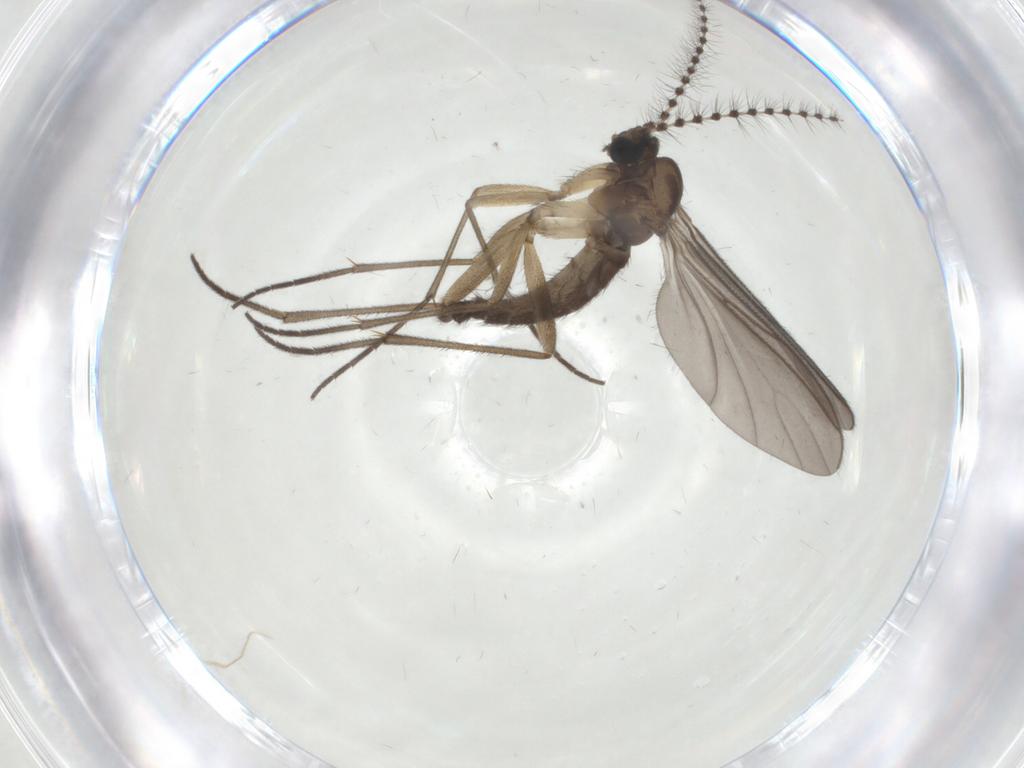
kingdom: Animalia
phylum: Arthropoda
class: Insecta
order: Diptera
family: Sciaridae
